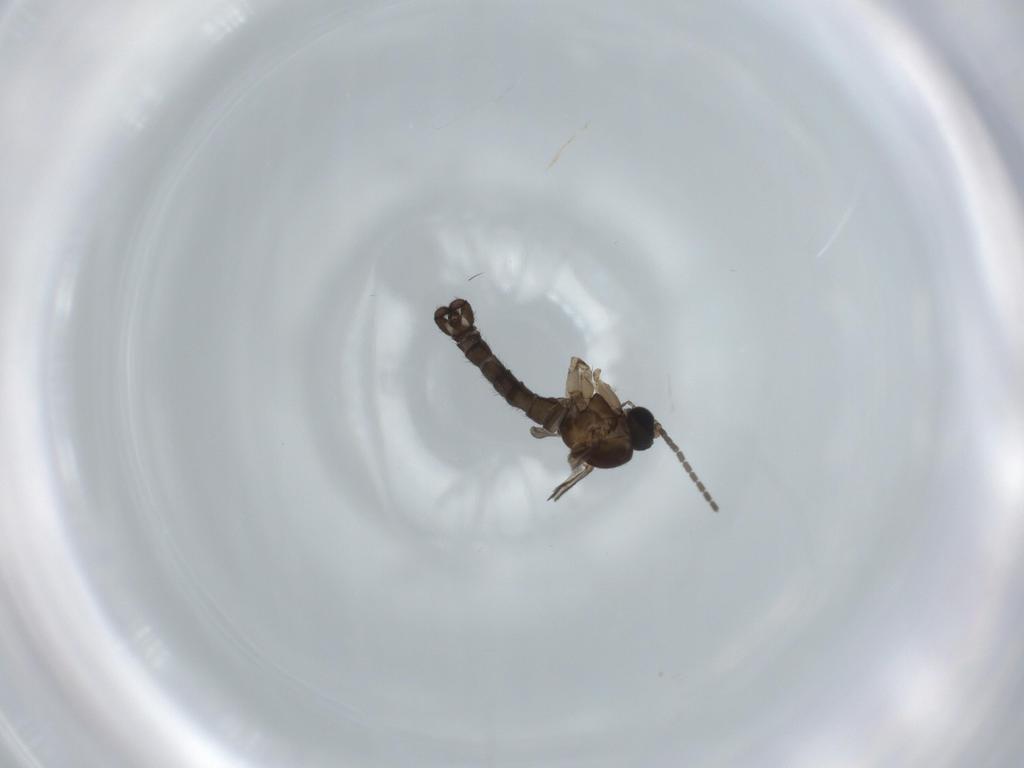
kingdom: Animalia
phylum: Arthropoda
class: Insecta
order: Diptera
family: Sciaridae
